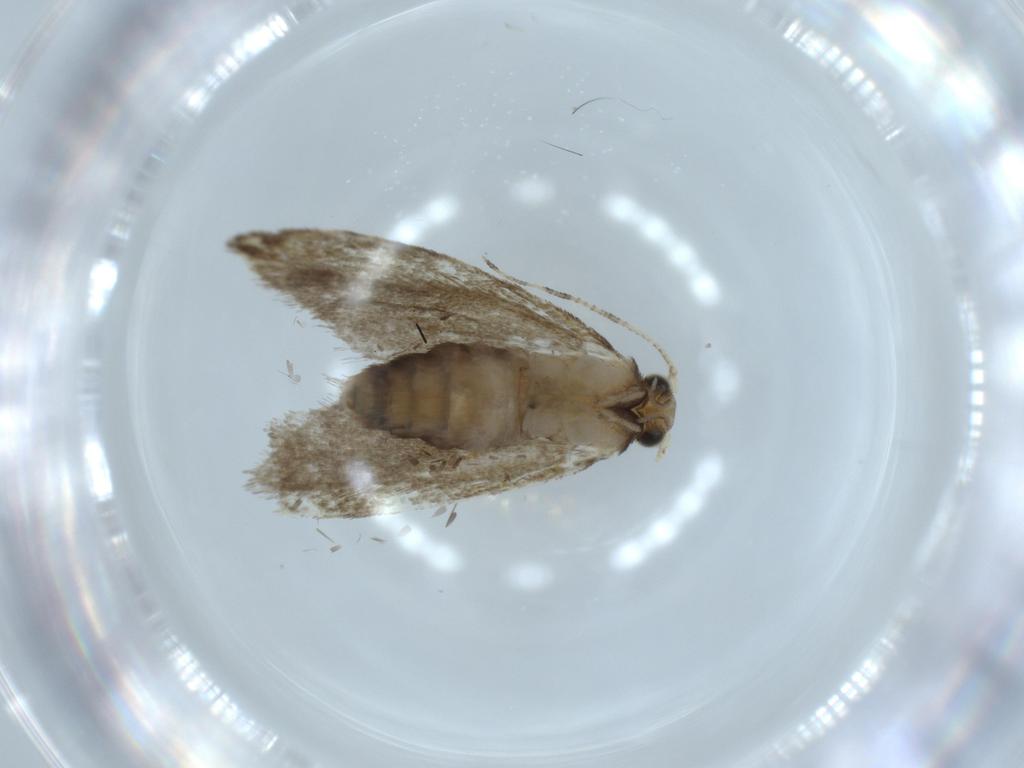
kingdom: Animalia
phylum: Arthropoda
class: Insecta
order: Lepidoptera
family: Tineidae
